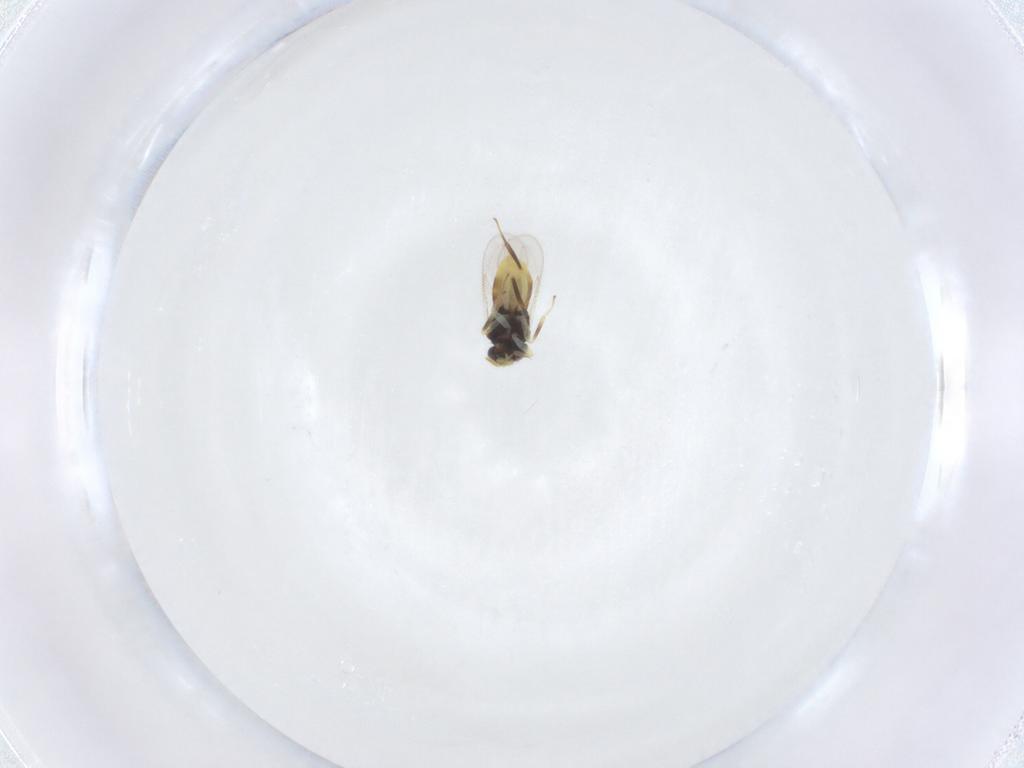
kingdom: Animalia
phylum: Arthropoda
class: Insecta
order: Hymenoptera
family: Aphelinidae
